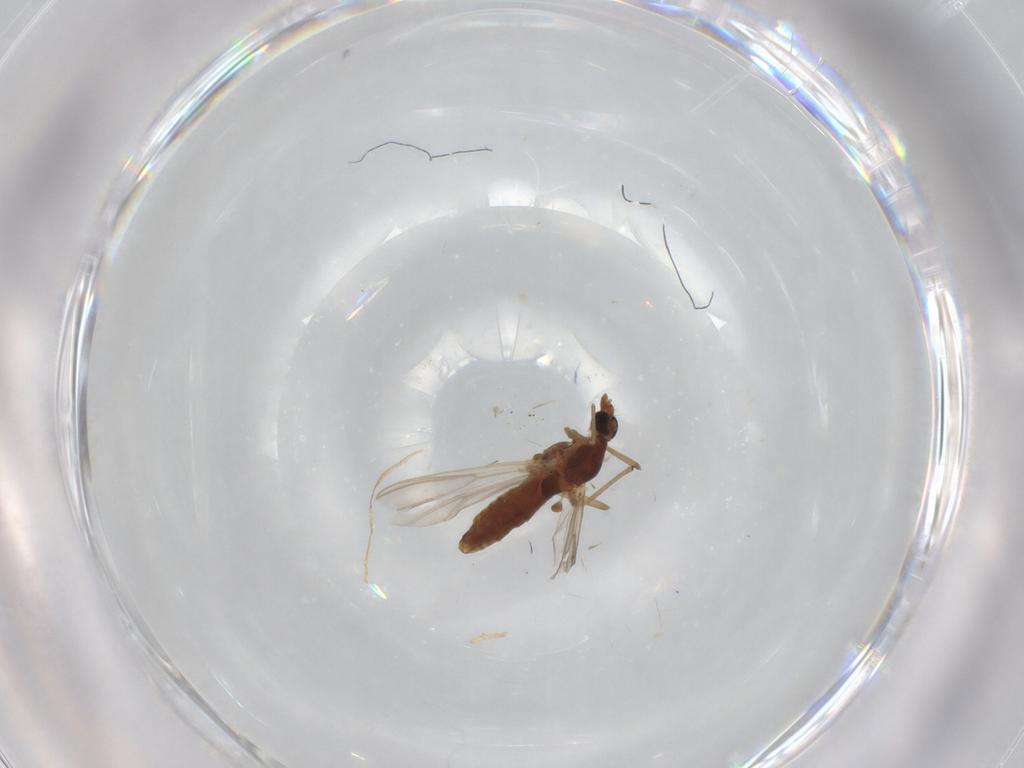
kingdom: Animalia
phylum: Arthropoda
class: Insecta
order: Diptera
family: Chironomidae
